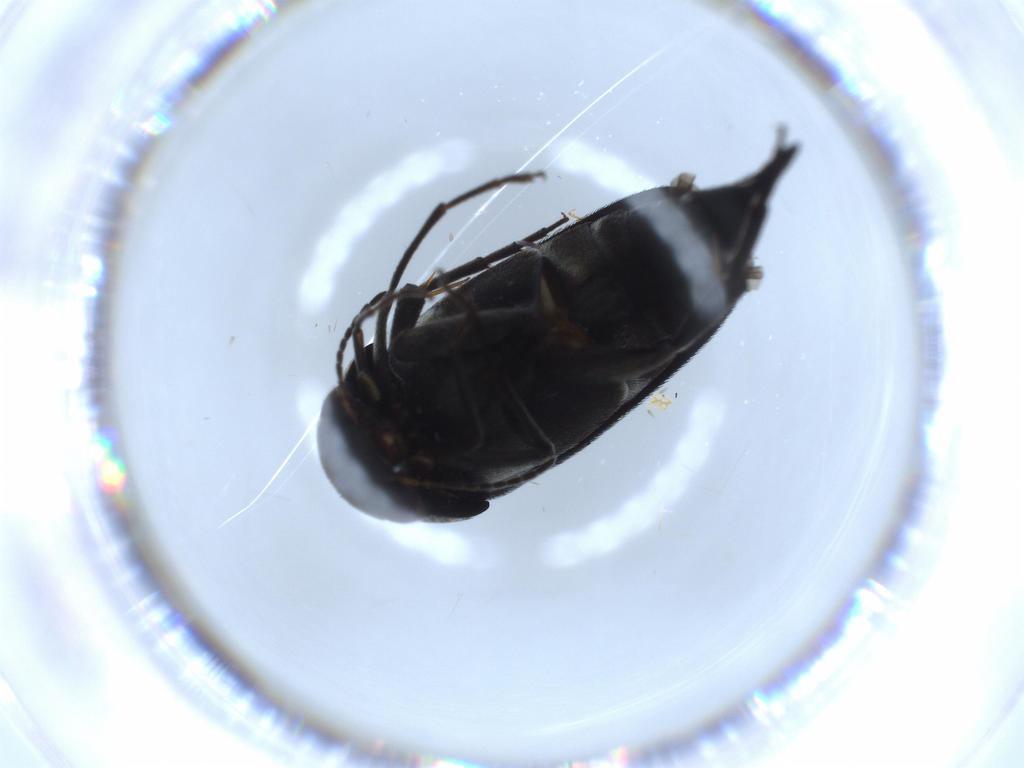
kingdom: Animalia
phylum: Arthropoda
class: Insecta
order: Coleoptera
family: Mordellidae
